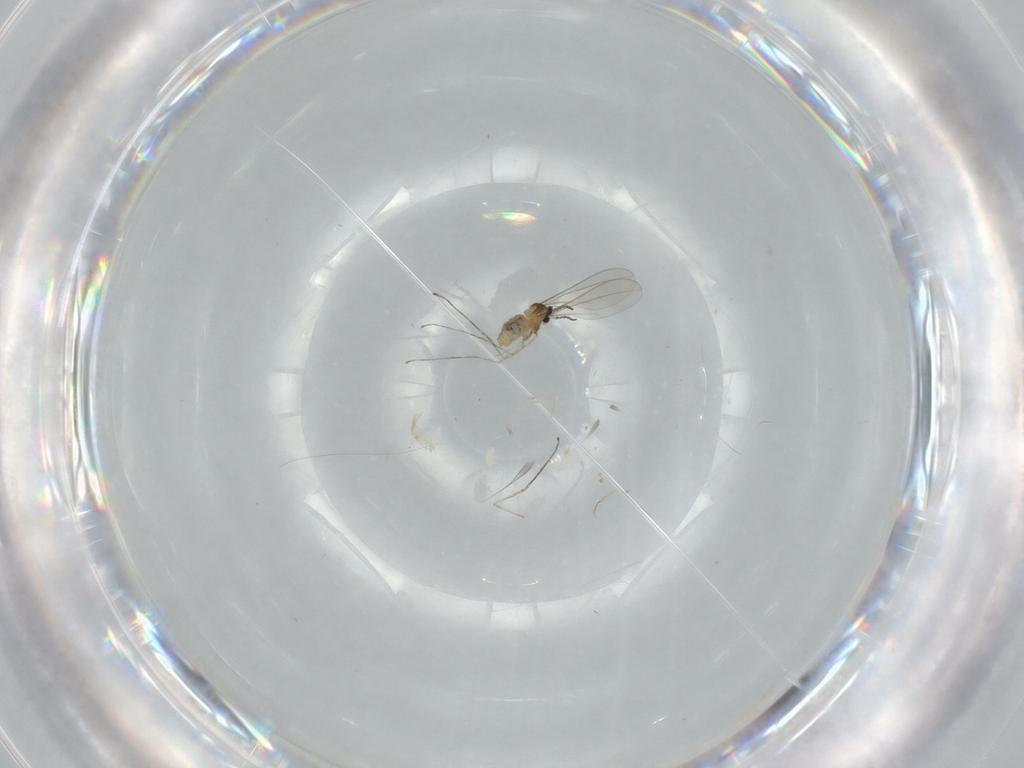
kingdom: Animalia
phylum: Arthropoda
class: Insecta
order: Diptera
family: Cecidomyiidae
